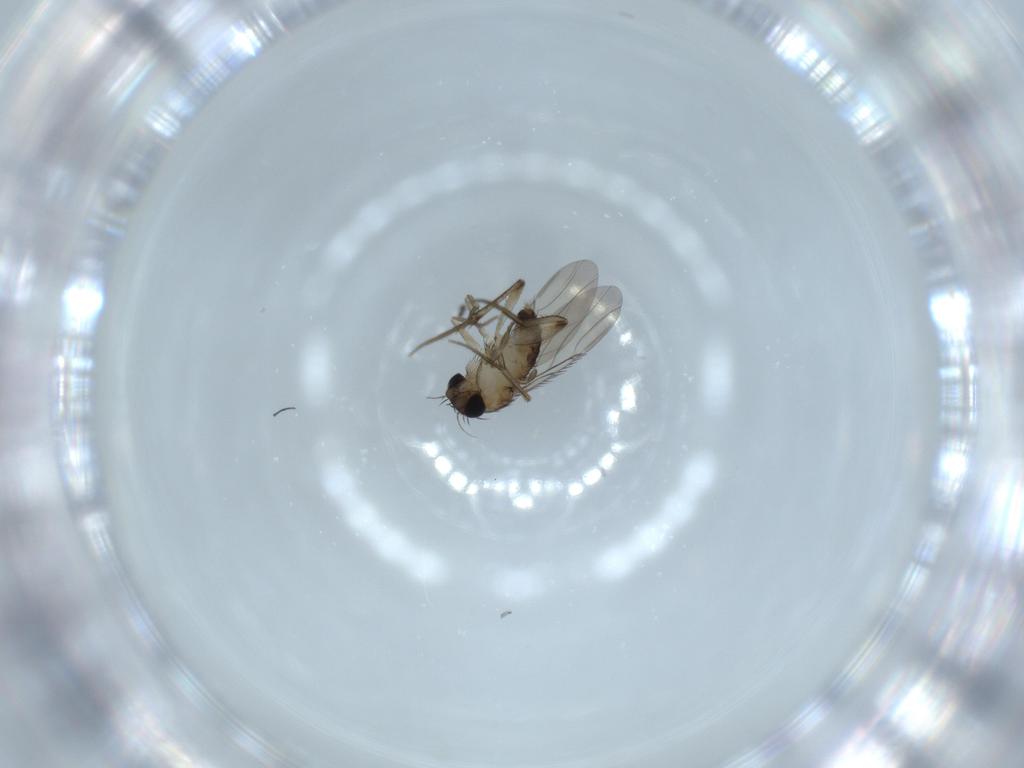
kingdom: Animalia
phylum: Arthropoda
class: Insecta
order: Diptera
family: Phoridae
